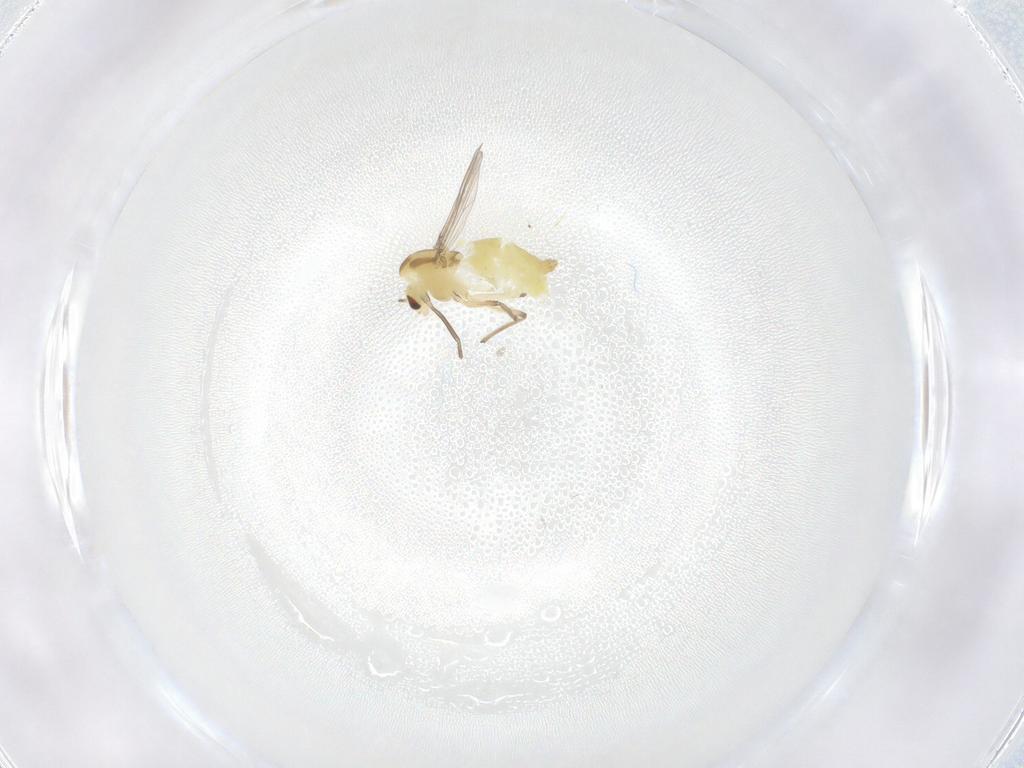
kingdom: Animalia
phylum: Arthropoda
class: Insecta
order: Diptera
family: Chironomidae
